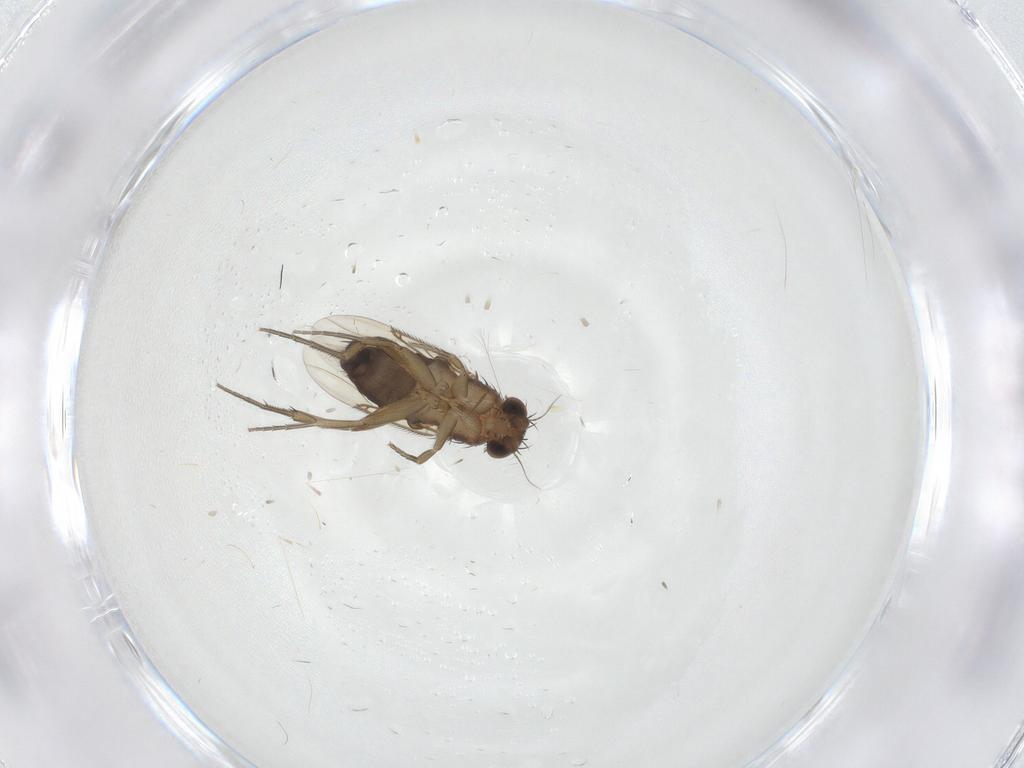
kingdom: Animalia
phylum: Arthropoda
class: Insecta
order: Diptera
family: Phoridae
